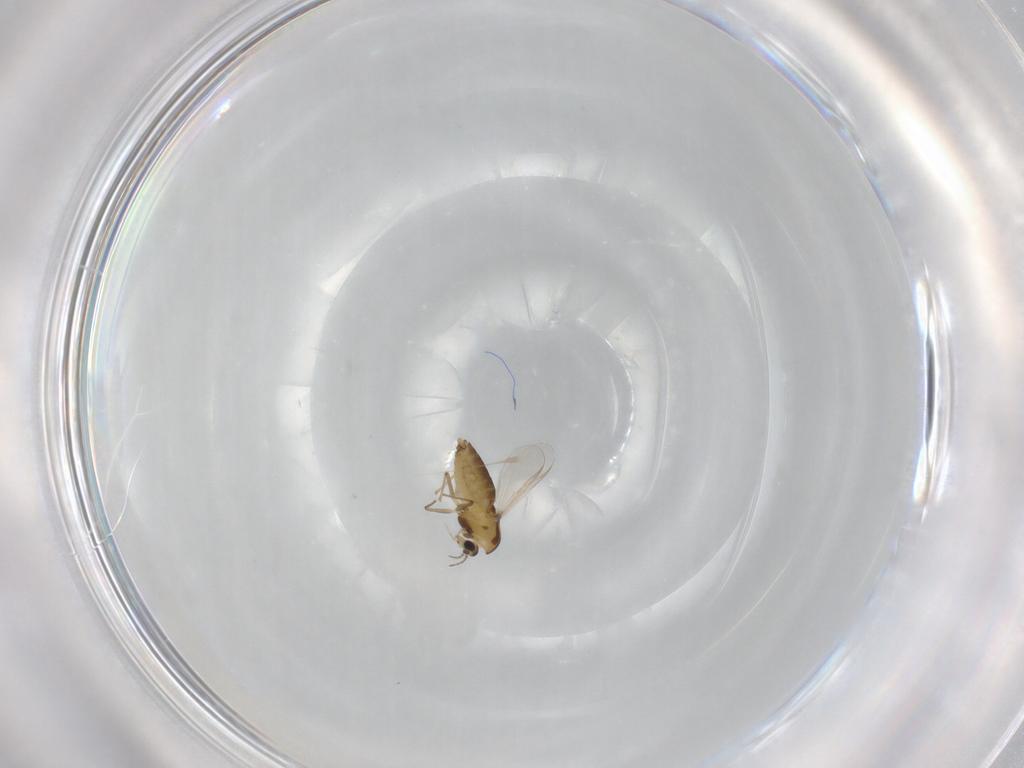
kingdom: Animalia
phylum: Arthropoda
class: Insecta
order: Diptera
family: Chironomidae
